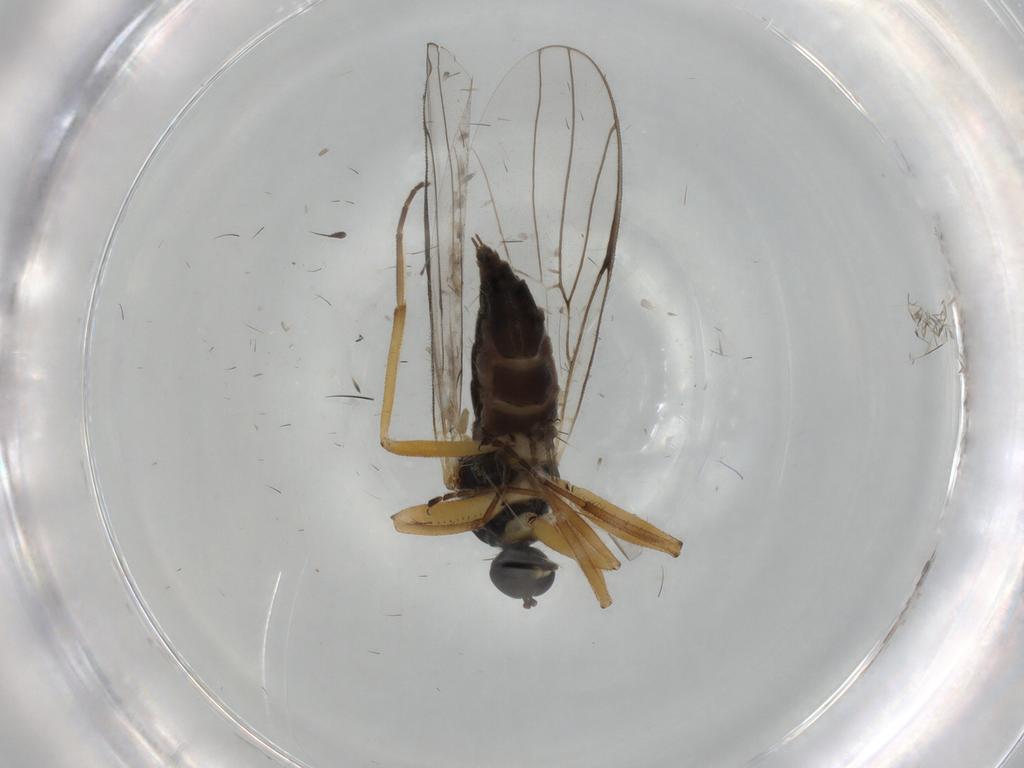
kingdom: Animalia
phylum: Arthropoda
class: Insecta
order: Diptera
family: Hybotidae
